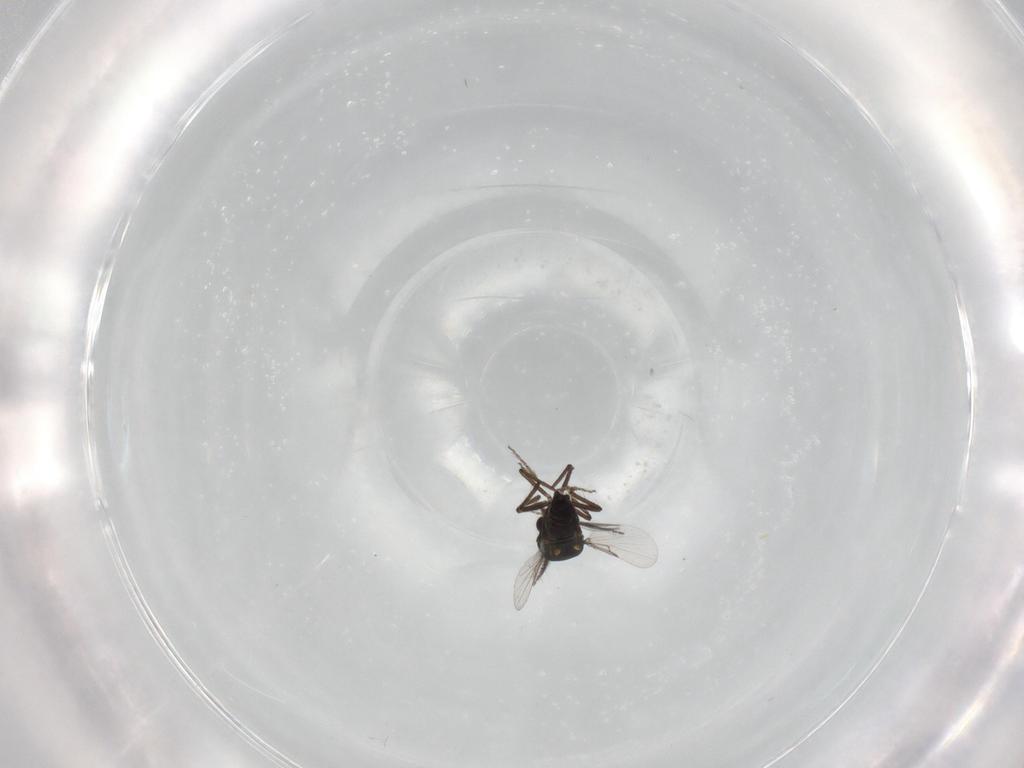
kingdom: Animalia
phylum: Arthropoda
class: Insecta
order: Diptera
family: Ceratopogonidae
